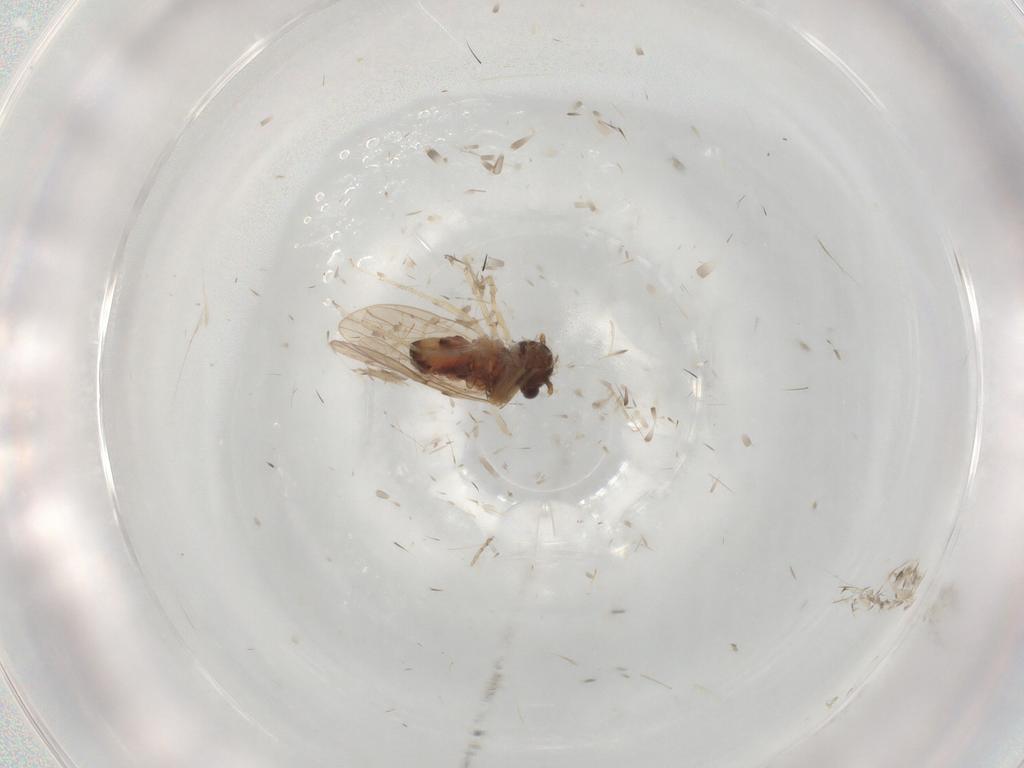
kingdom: Animalia
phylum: Arthropoda
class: Insecta
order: Psocodea
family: Ectopsocidae
